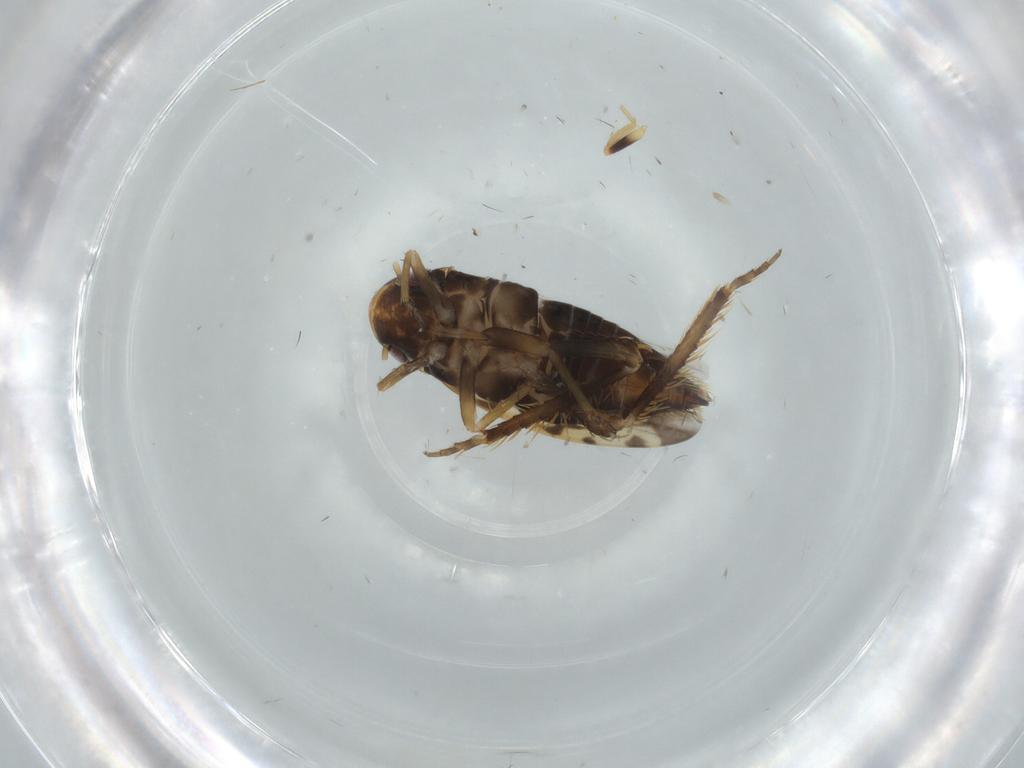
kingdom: Animalia
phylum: Arthropoda
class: Insecta
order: Hemiptera
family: Cicadellidae
